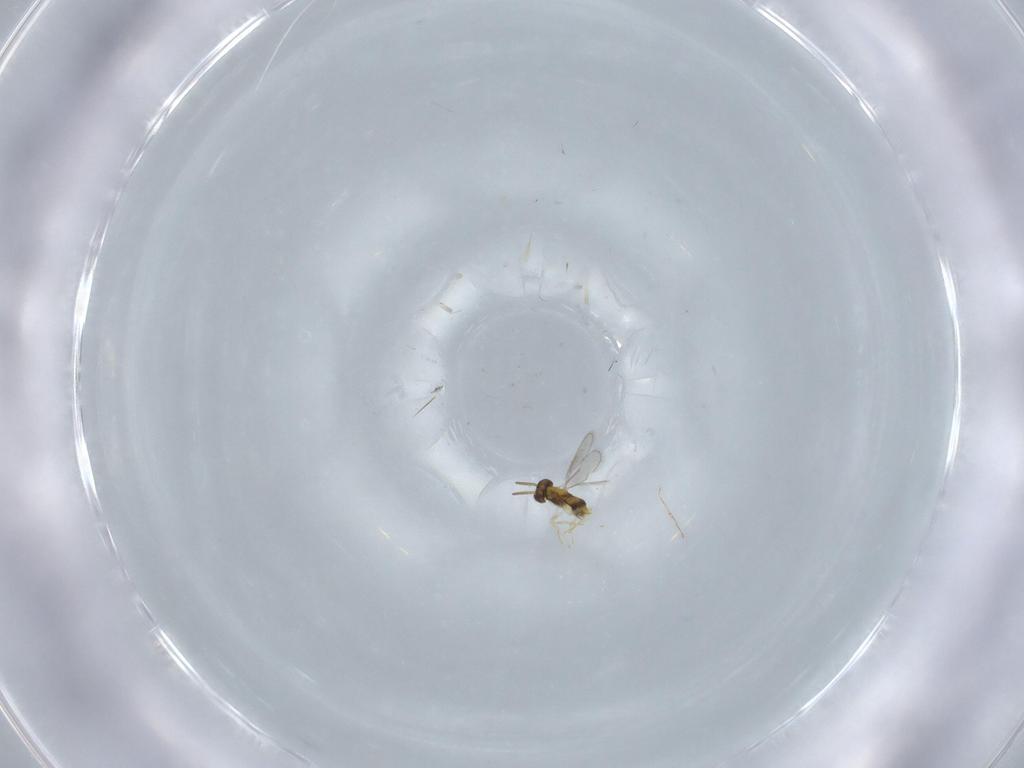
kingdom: Animalia
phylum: Arthropoda
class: Insecta
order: Hymenoptera
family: Aphelinidae
